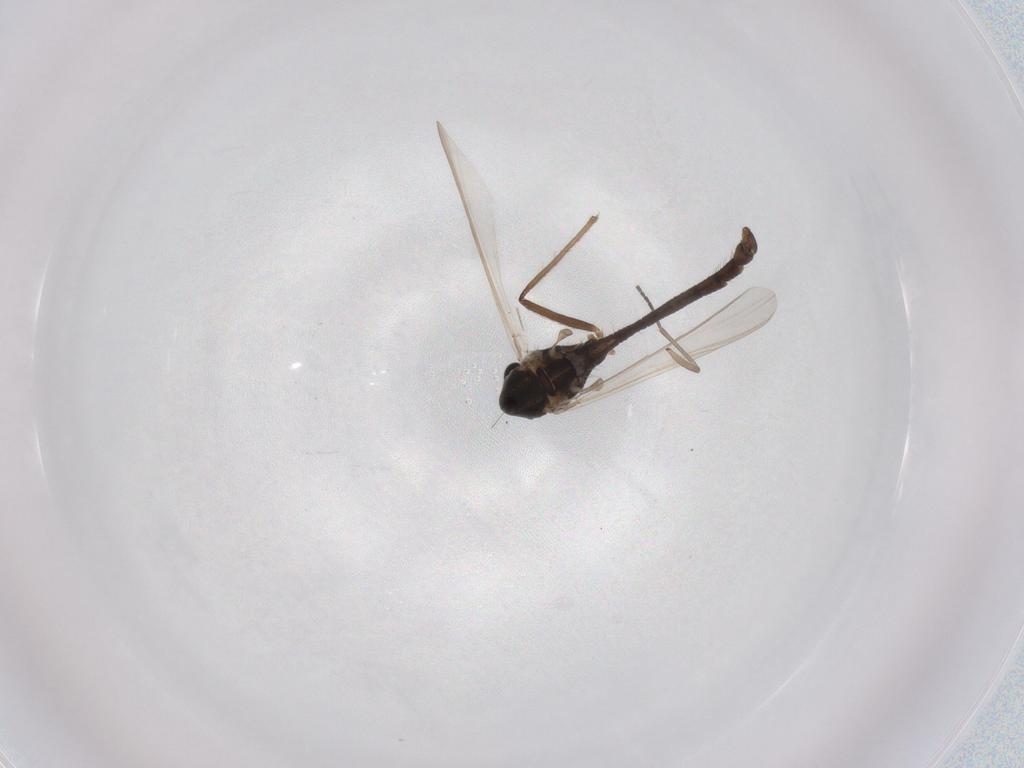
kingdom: Animalia
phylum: Arthropoda
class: Insecta
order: Diptera
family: Chironomidae
